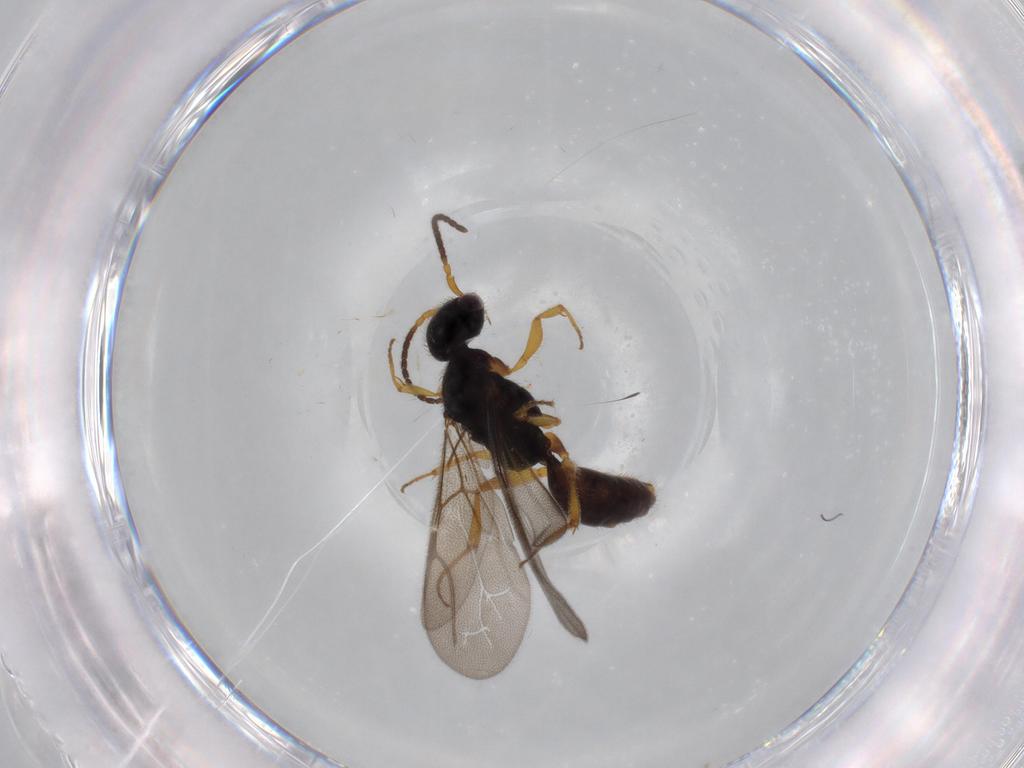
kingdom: Animalia
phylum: Arthropoda
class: Insecta
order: Hymenoptera
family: Bethylidae
